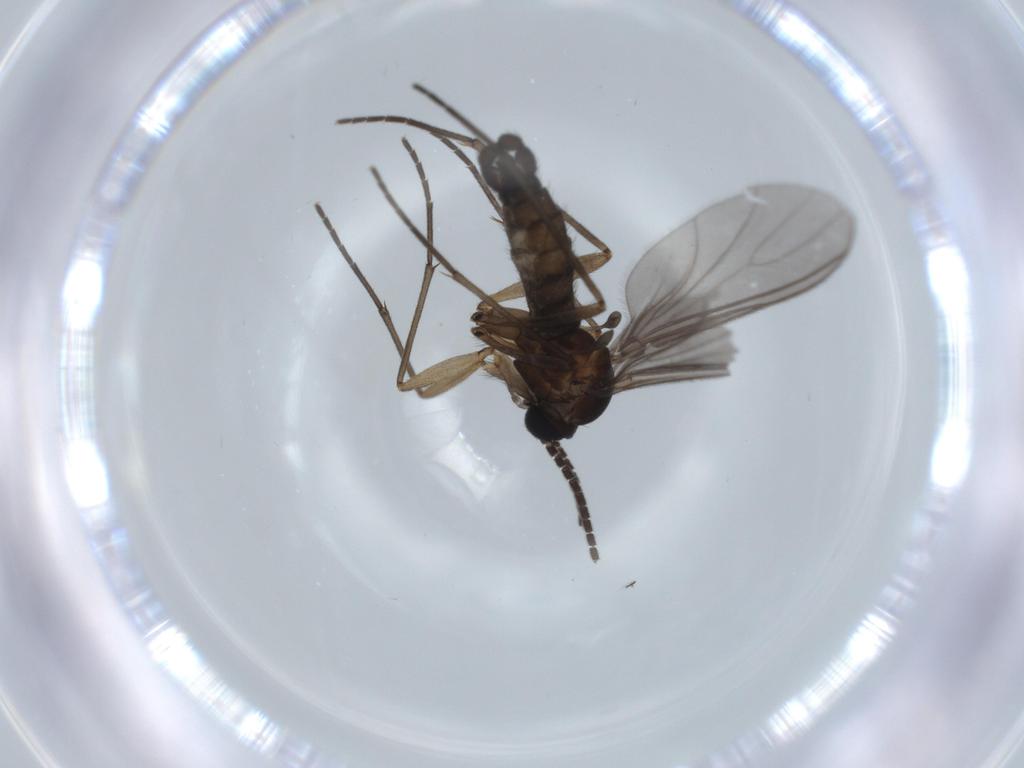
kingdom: Animalia
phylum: Arthropoda
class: Insecta
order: Diptera
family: Sciaridae
